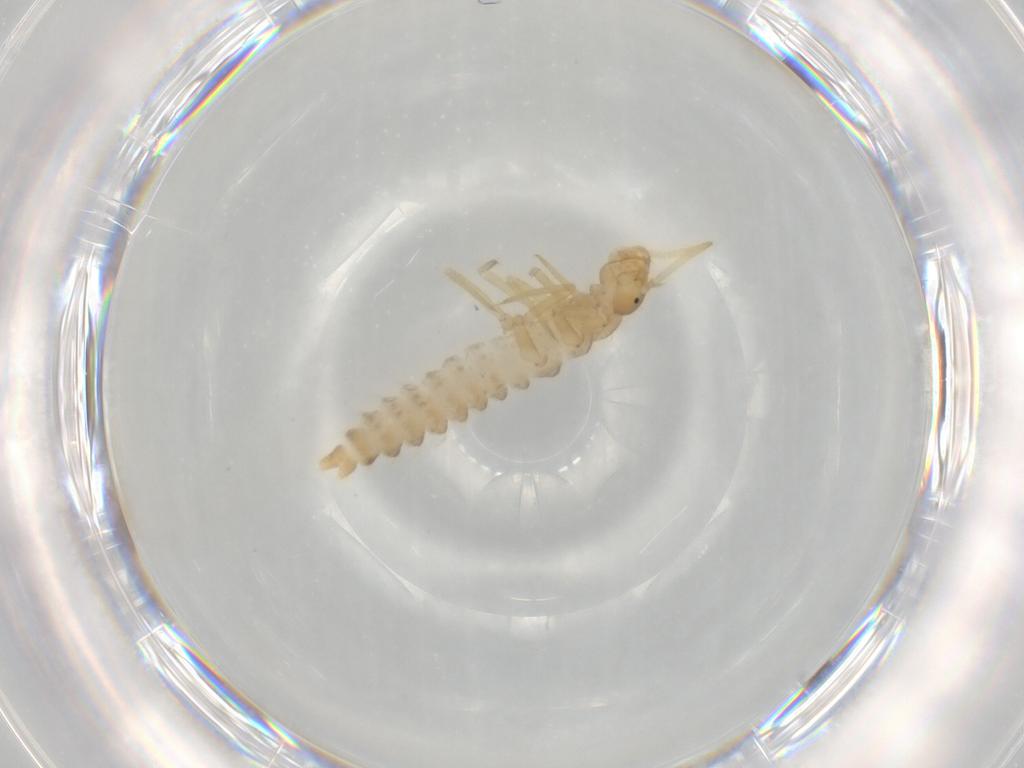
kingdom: Animalia
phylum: Arthropoda
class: Insecta
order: Coleoptera
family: Staphylinidae
